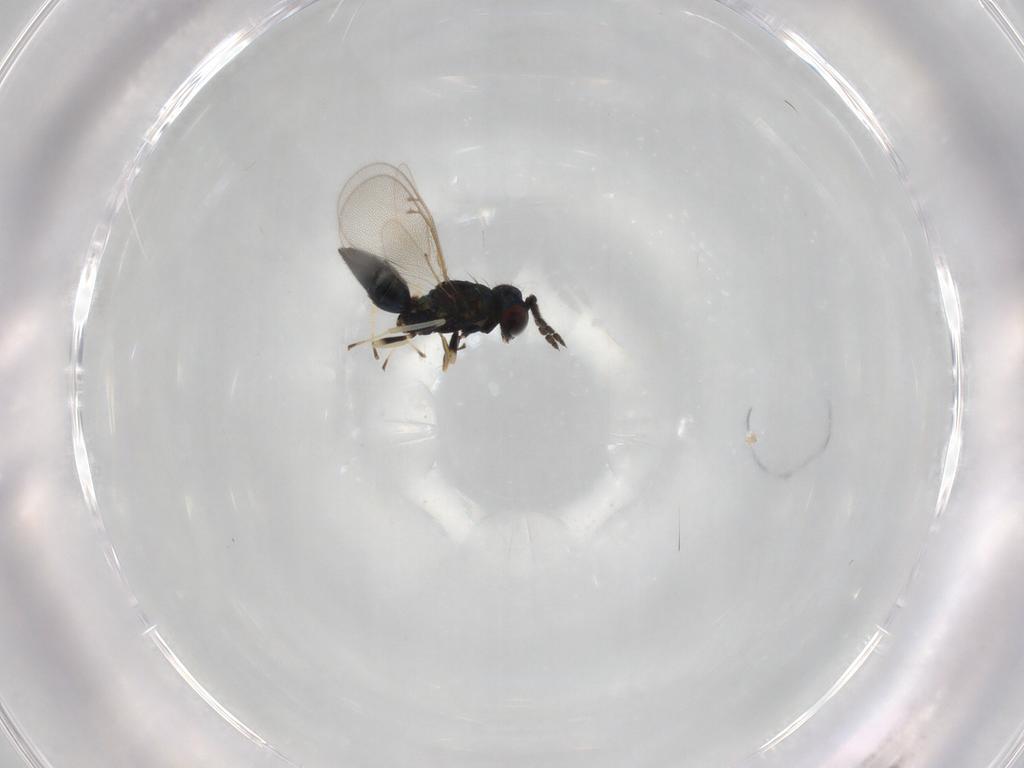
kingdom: Animalia
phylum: Arthropoda
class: Insecta
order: Hymenoptera
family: Eulophidae
